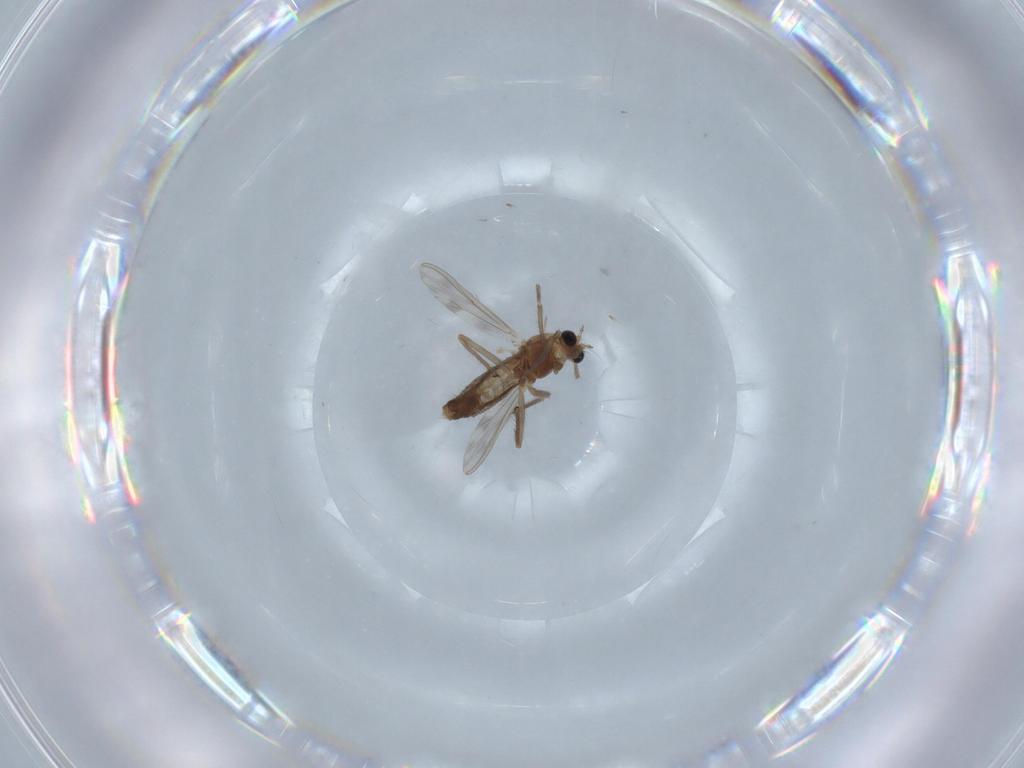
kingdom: Animalia
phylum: Arthropoda
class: Insecta
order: Diptera
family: Chironomidae
